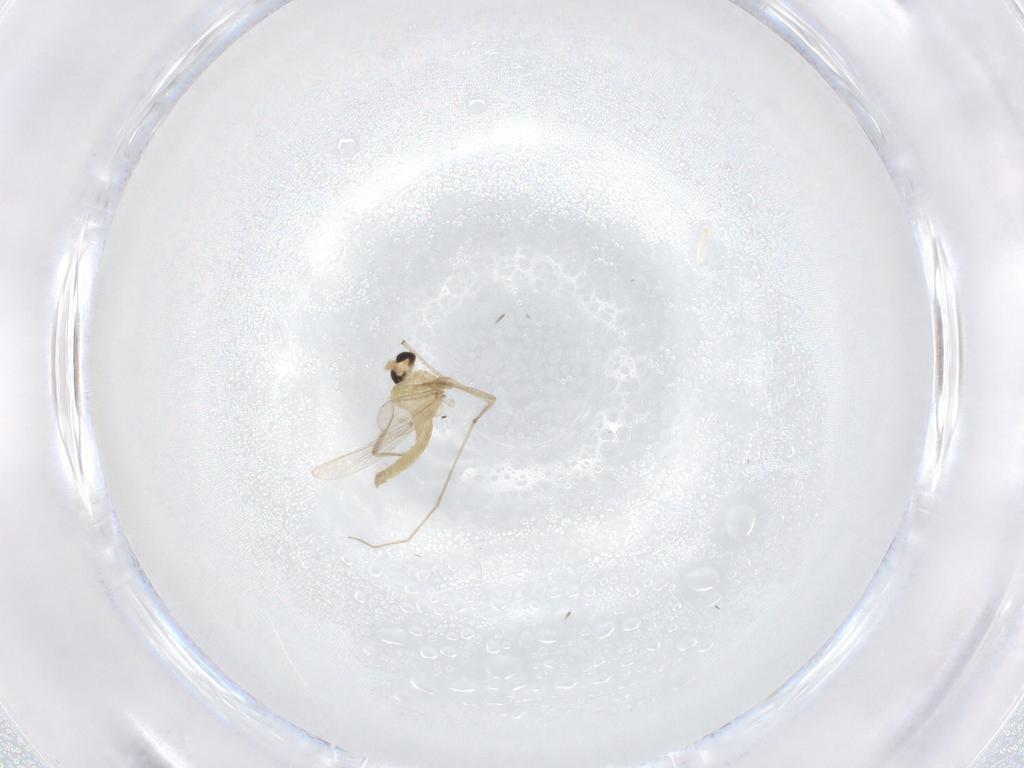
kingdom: Animalia
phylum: Arthropoda
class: Insecta
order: Diptera
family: Chironomidae
